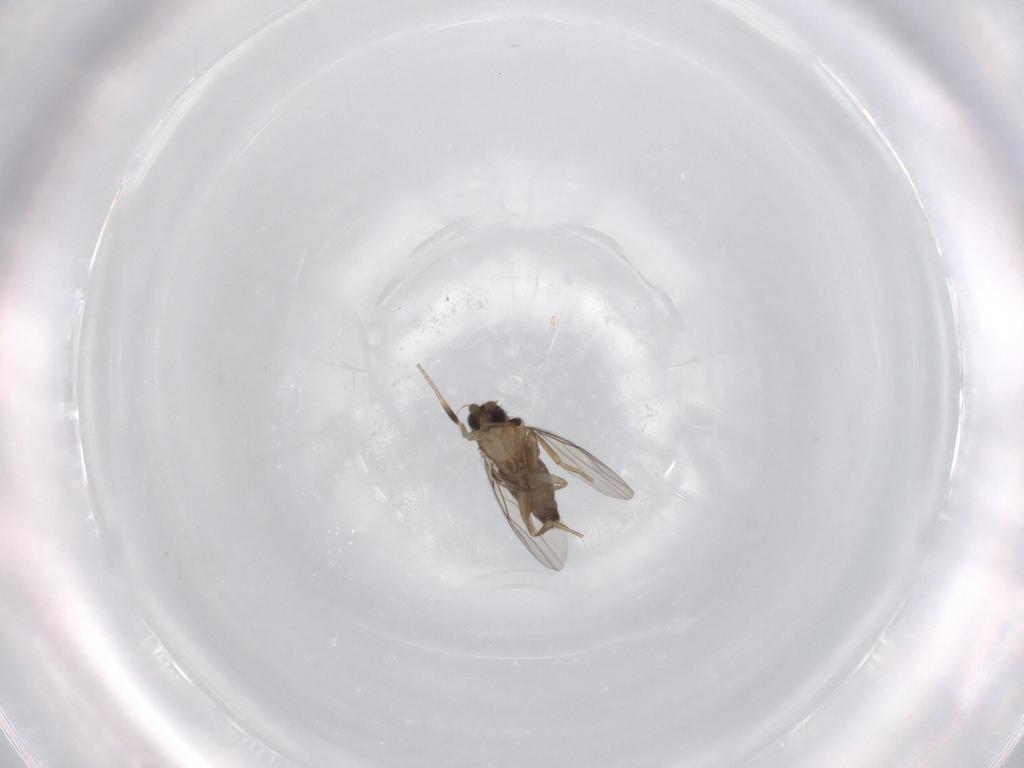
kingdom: Animalia
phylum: Arthropoda
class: Insecta
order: Diptera
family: Phoridae
